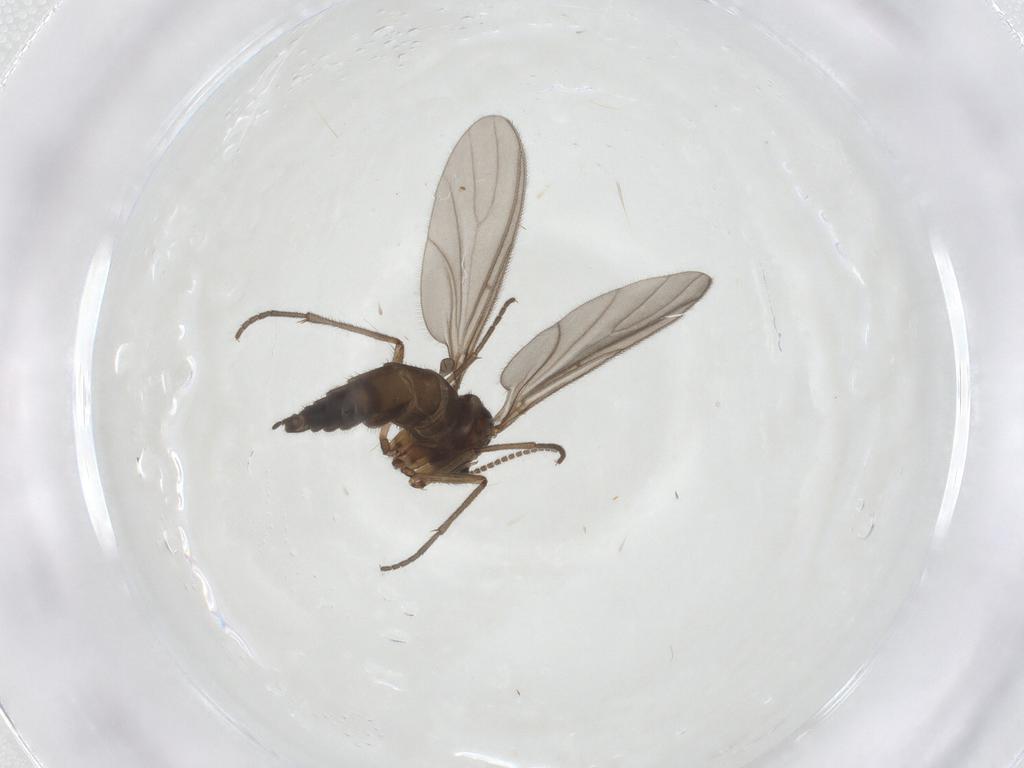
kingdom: Animalia
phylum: Arthropoda
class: Insecta
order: Diptera
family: Sciaridae
